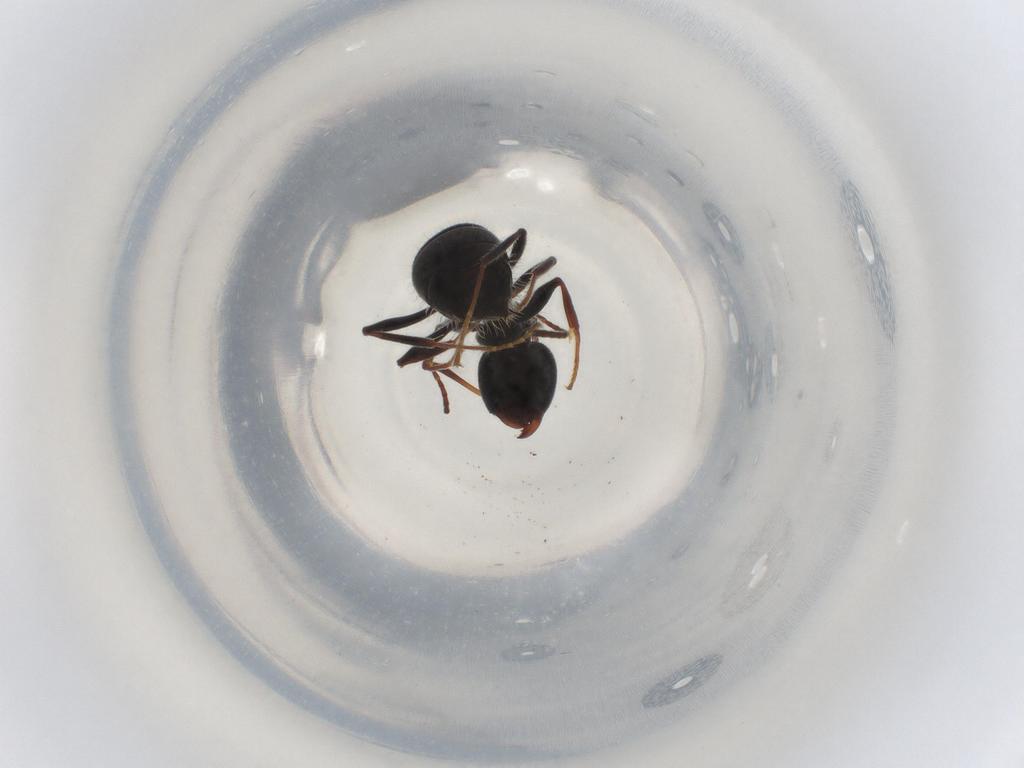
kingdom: Animalia
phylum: Arthropoda
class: Insecta
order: Hymenoptera
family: Formicidae
